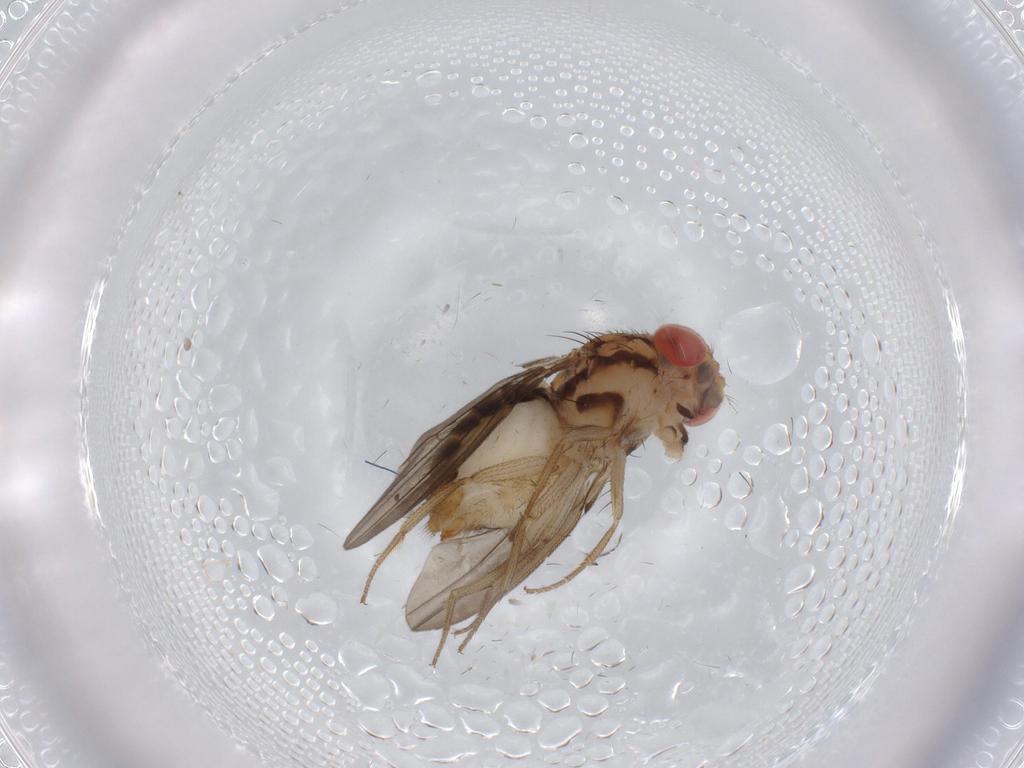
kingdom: Animalia
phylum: Arthropoda
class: Insecta
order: Diptera
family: Drosophilidae
